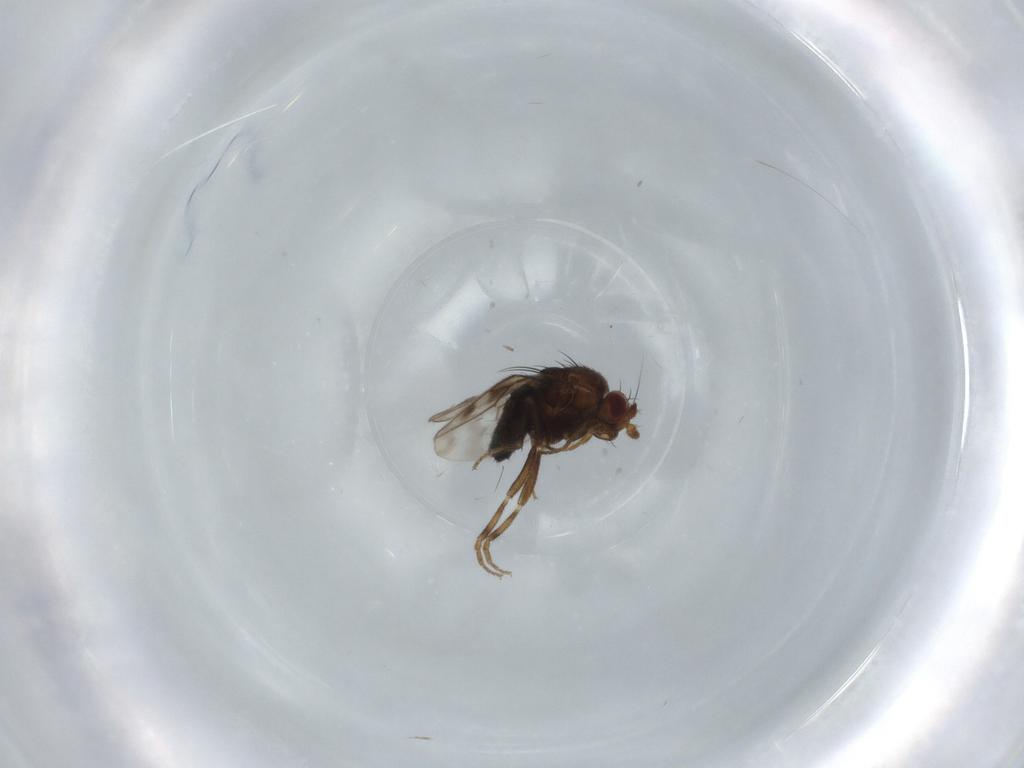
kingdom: Animalia
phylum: Arthropoda
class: Insecta
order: Diptera
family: Sphaeroceridae
